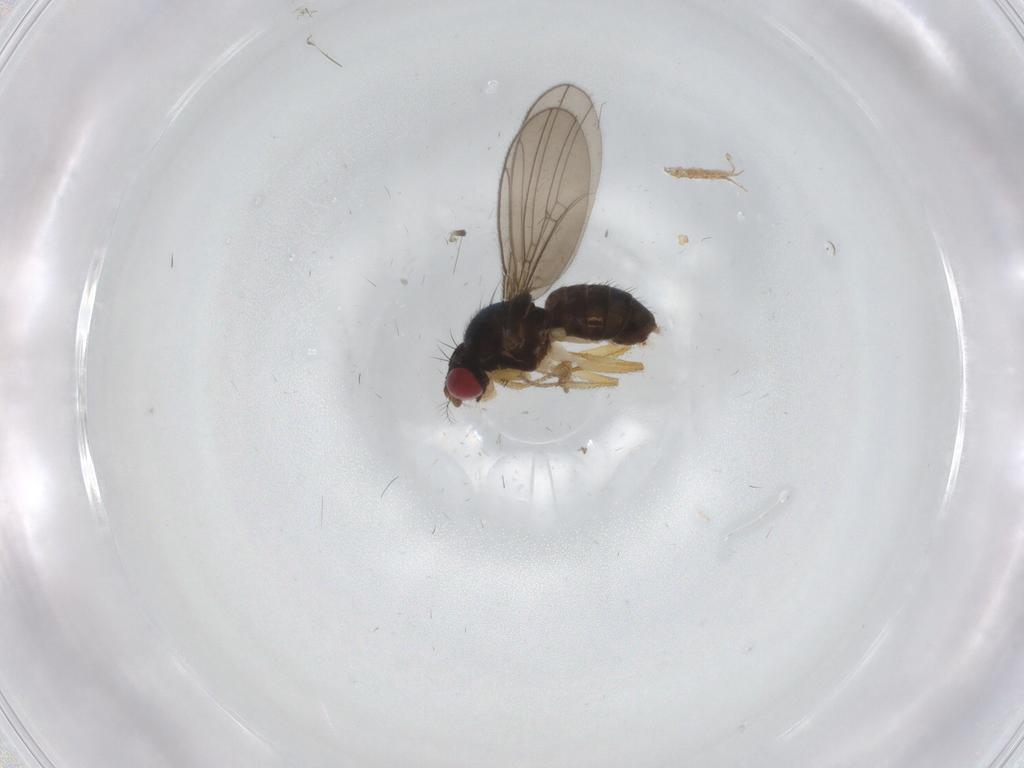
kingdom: Animalia
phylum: Arthropoda
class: Insecta
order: Diptera
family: Drosophilidae
